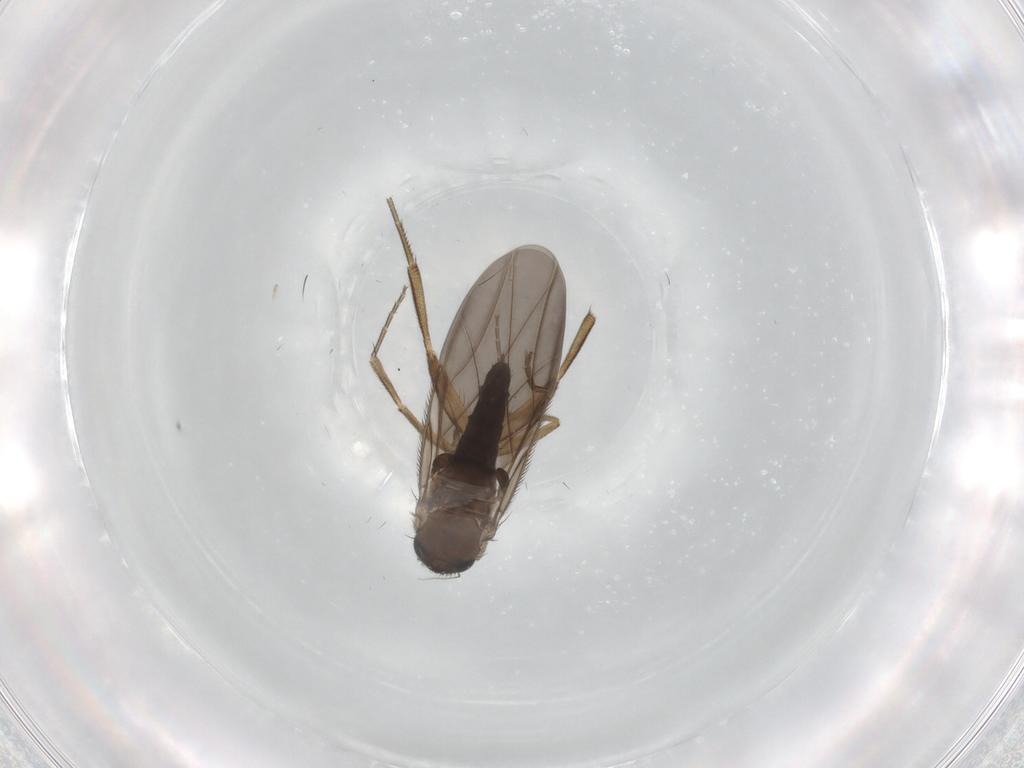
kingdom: Animalia
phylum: Arthropoda
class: Insecta
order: Diptera
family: Phoridae
